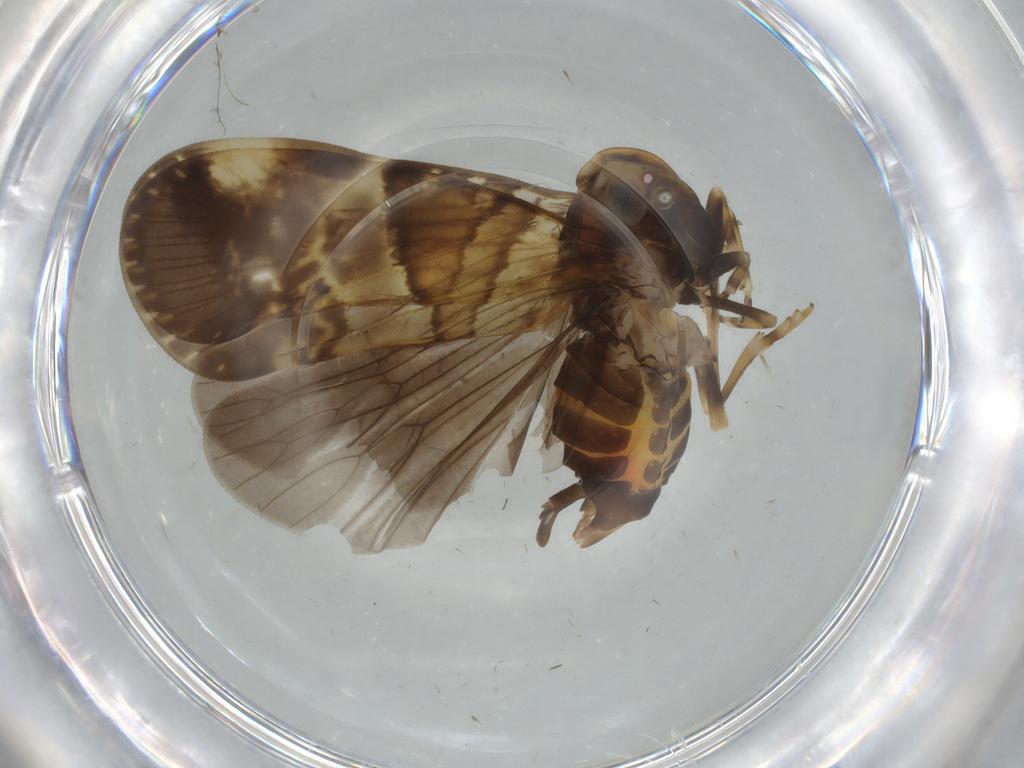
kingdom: Animalia
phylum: Arthropoda
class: Insecta
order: Hemiptera
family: Cixiidae
